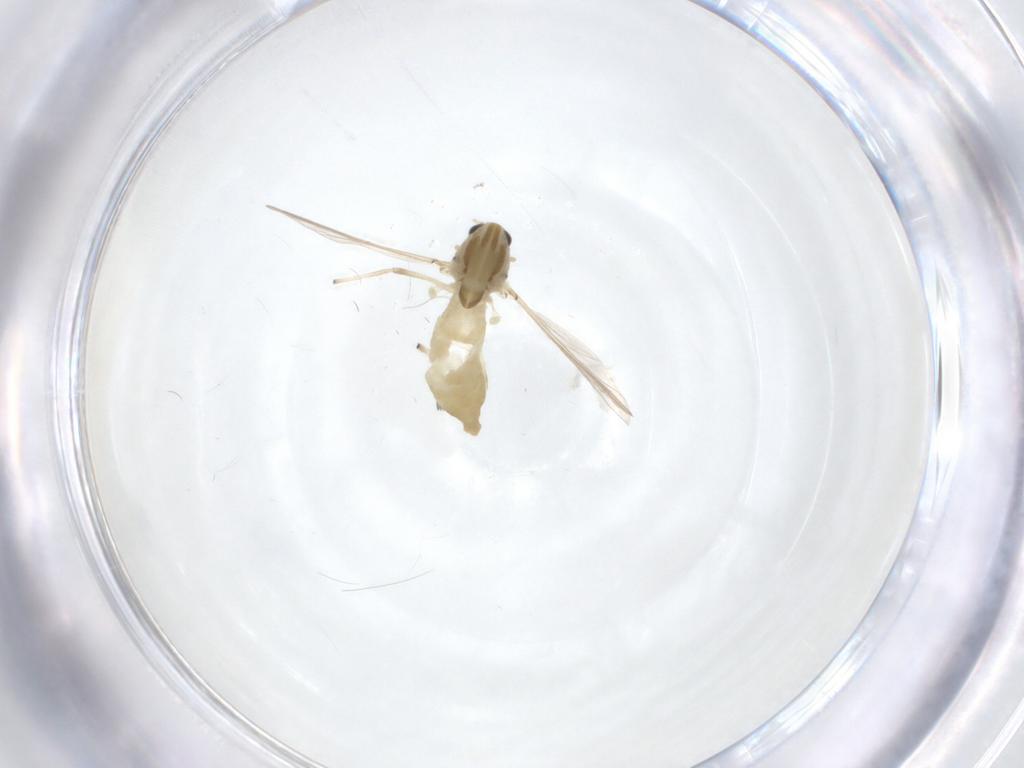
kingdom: Animalia
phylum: Arthropoda
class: Insecta
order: Diptera
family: Chironomidae
